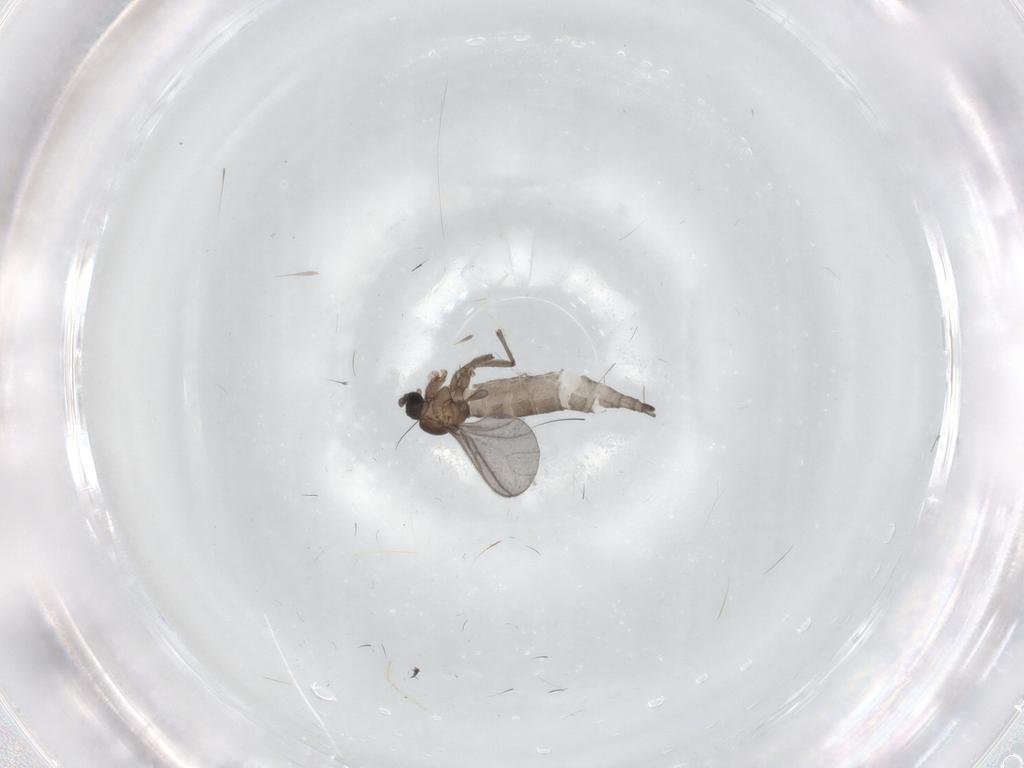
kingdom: Animalia
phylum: Arthropoda
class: Insecta
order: Diptera
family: Sciaridae
